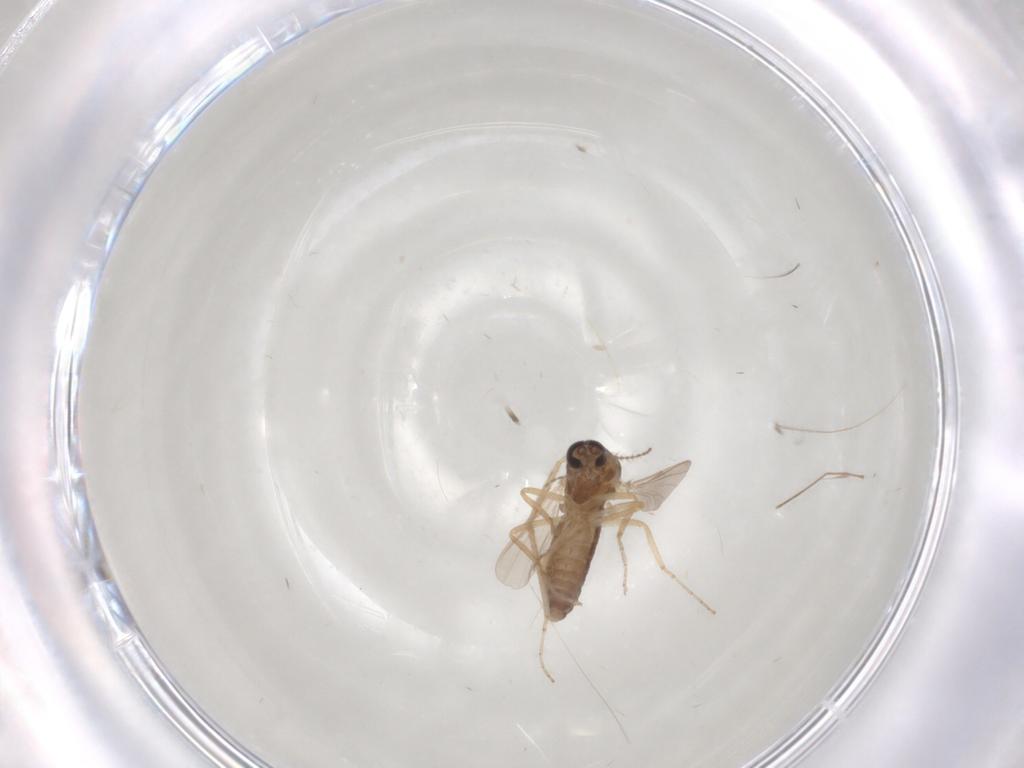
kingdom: Animalia
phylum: Arthropoda
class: Insecta
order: Diptera
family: Ceratopogonidae
